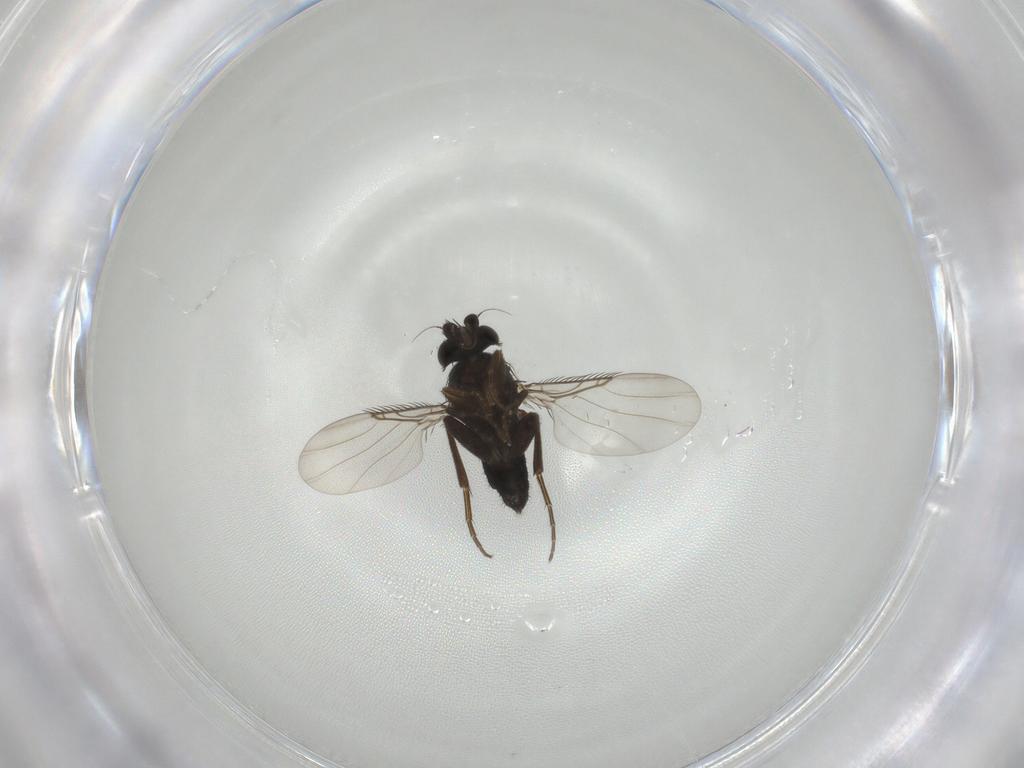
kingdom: Animalia
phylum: Arthropoda
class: Insecta
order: Diptera
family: Phoridae
